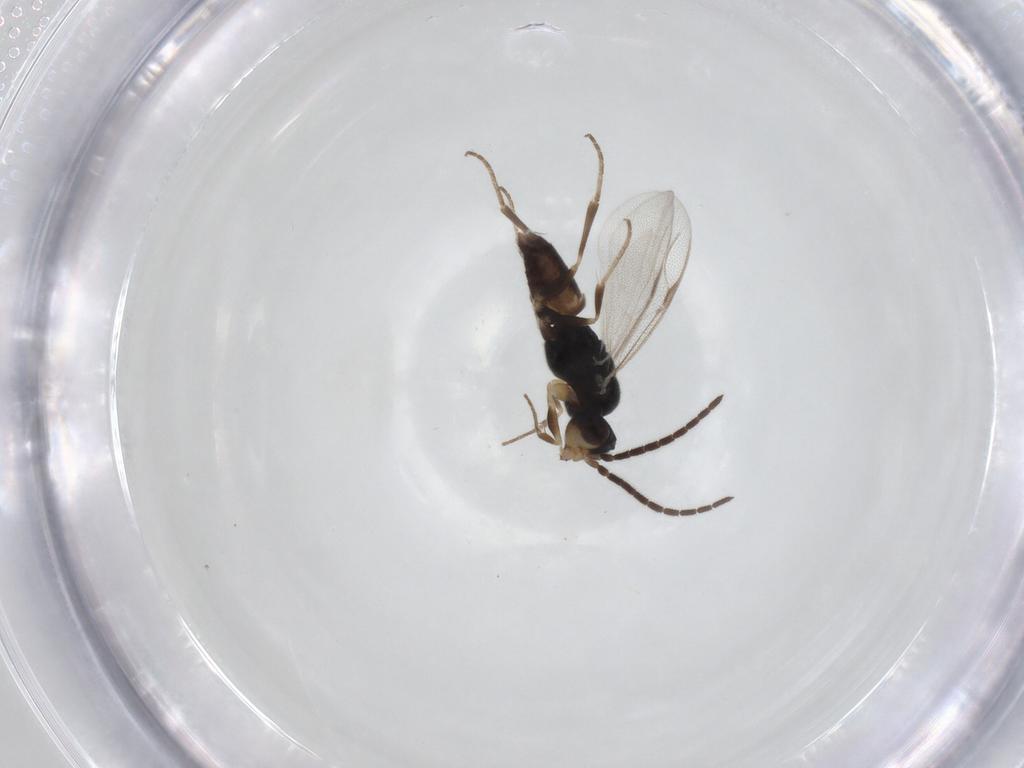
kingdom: Animalia
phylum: Arthropoda
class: Insecta
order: Hymenoptera
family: Dryinidae
